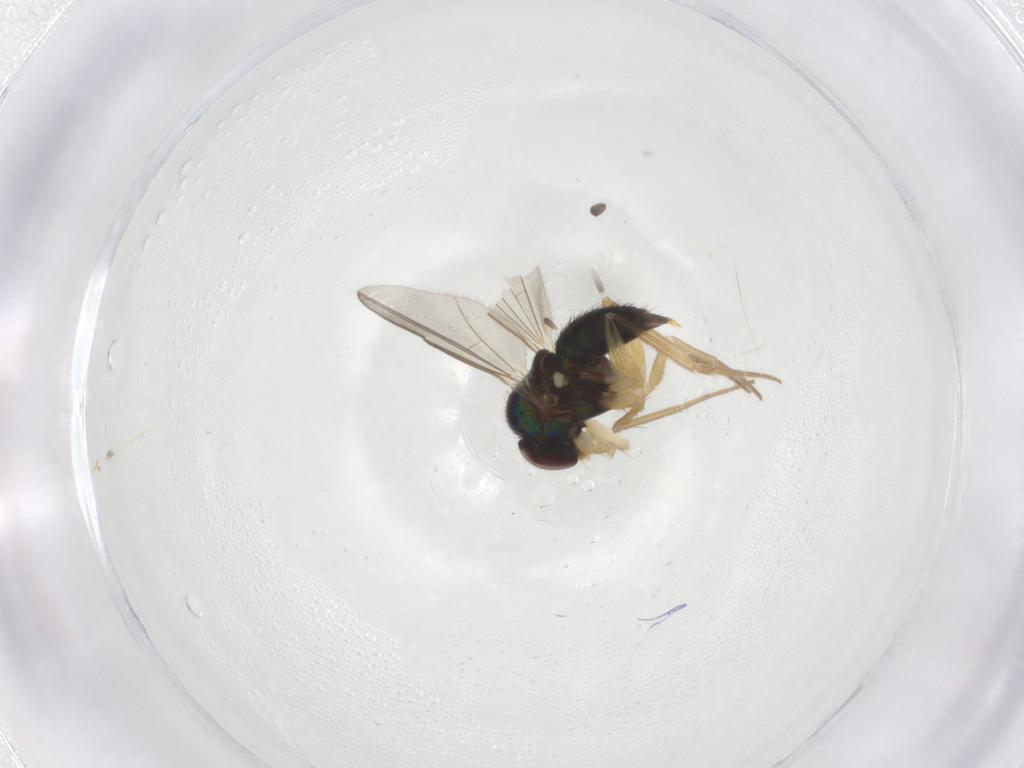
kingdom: Animalia
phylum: Arthropoda
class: Insecta
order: Diptera
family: Dolichopodidae
